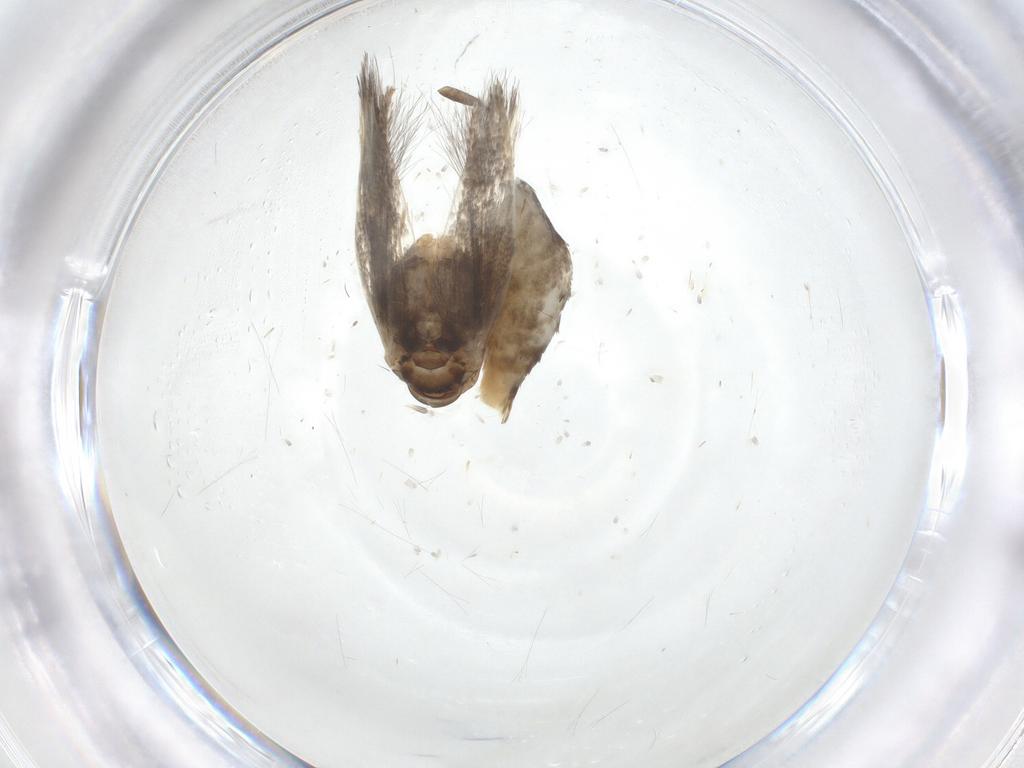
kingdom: Animalia
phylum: Arthropoda
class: Insecta
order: Lepidoptera
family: Elachistidae
